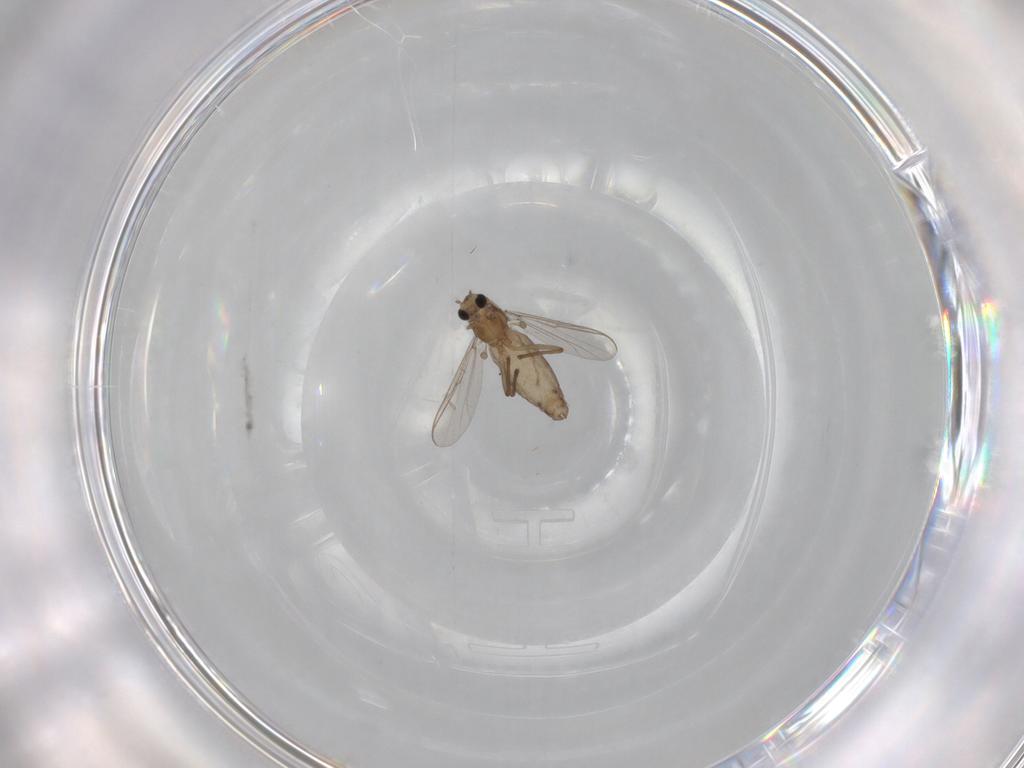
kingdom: Animalia
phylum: Arthropoda
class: Insecta
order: Diptera
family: Chironomidae
